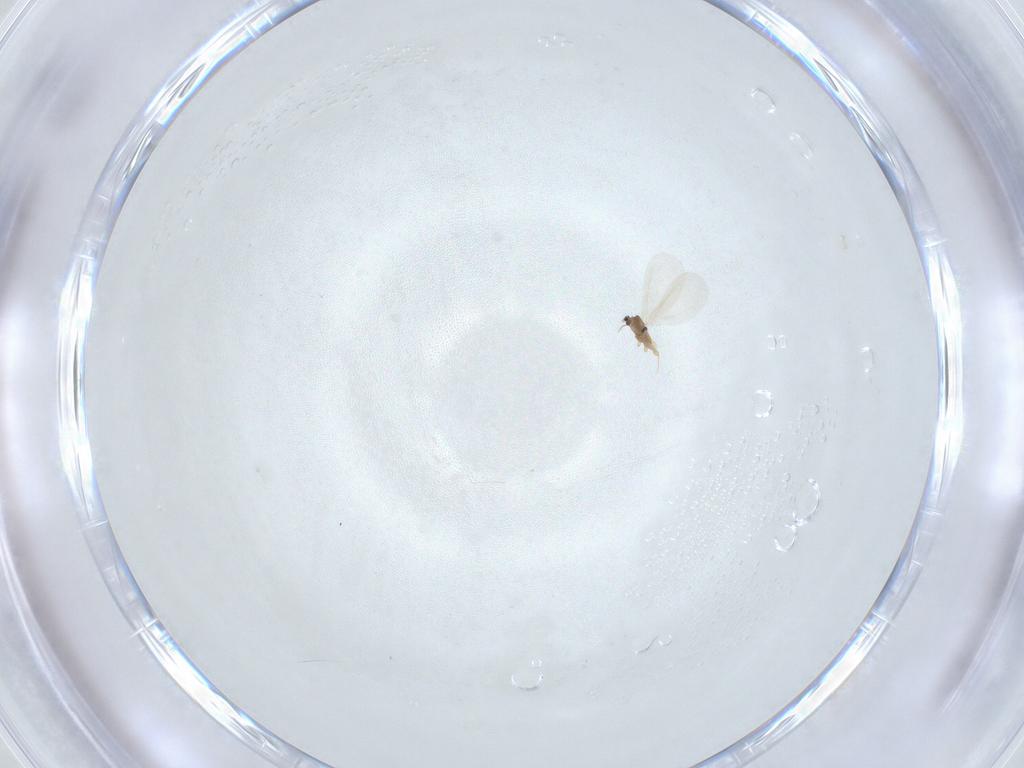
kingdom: Animalia
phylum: Arthropoda
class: Insecta
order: Hemiptera
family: Diaspididae
